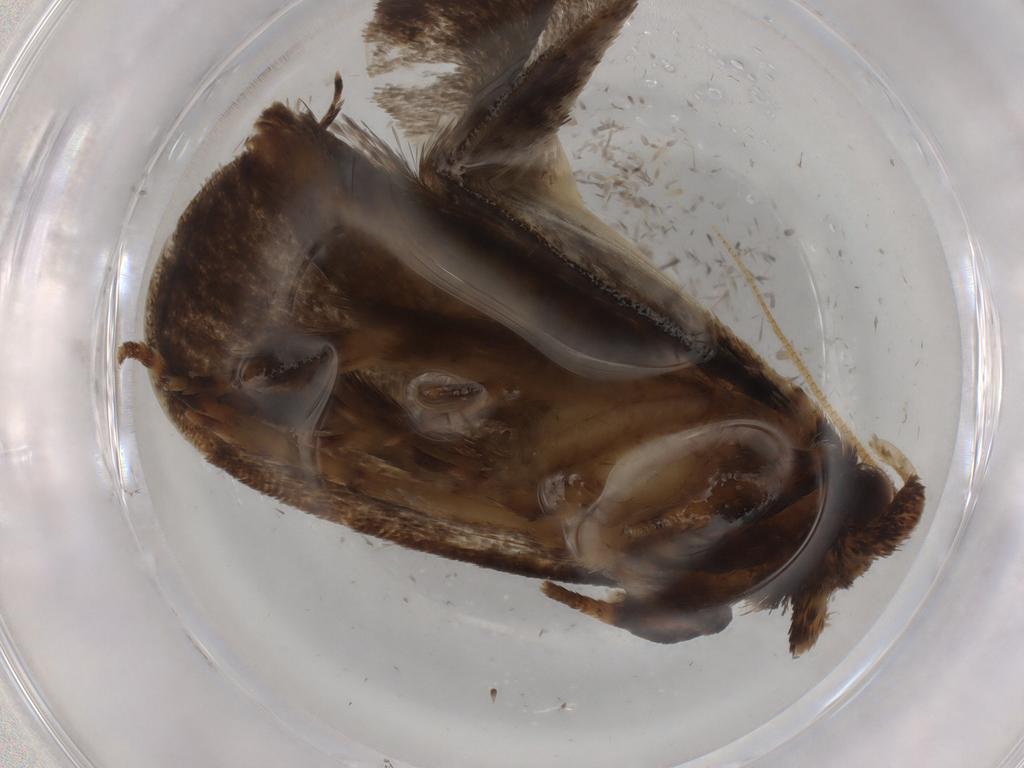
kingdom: Animalia
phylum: Arthropoda
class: Insecta
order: Lepidoptera
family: Tineidae
